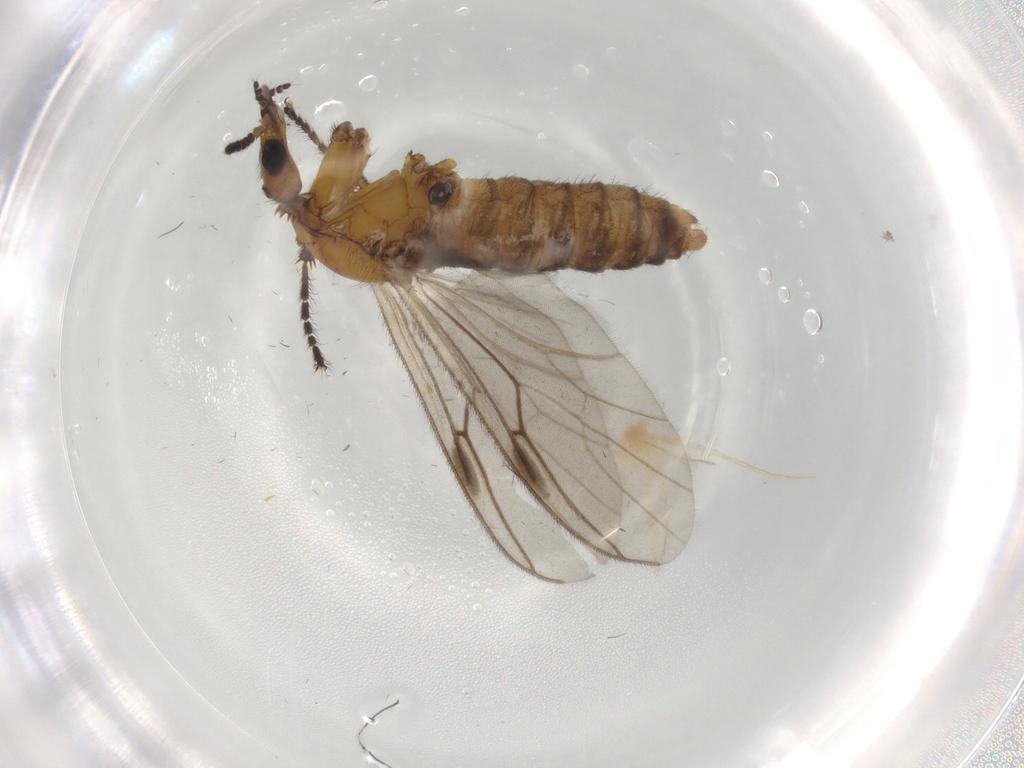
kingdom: Animalia
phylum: Arthropoda
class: Insecta
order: Diptera
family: Bibionidae
